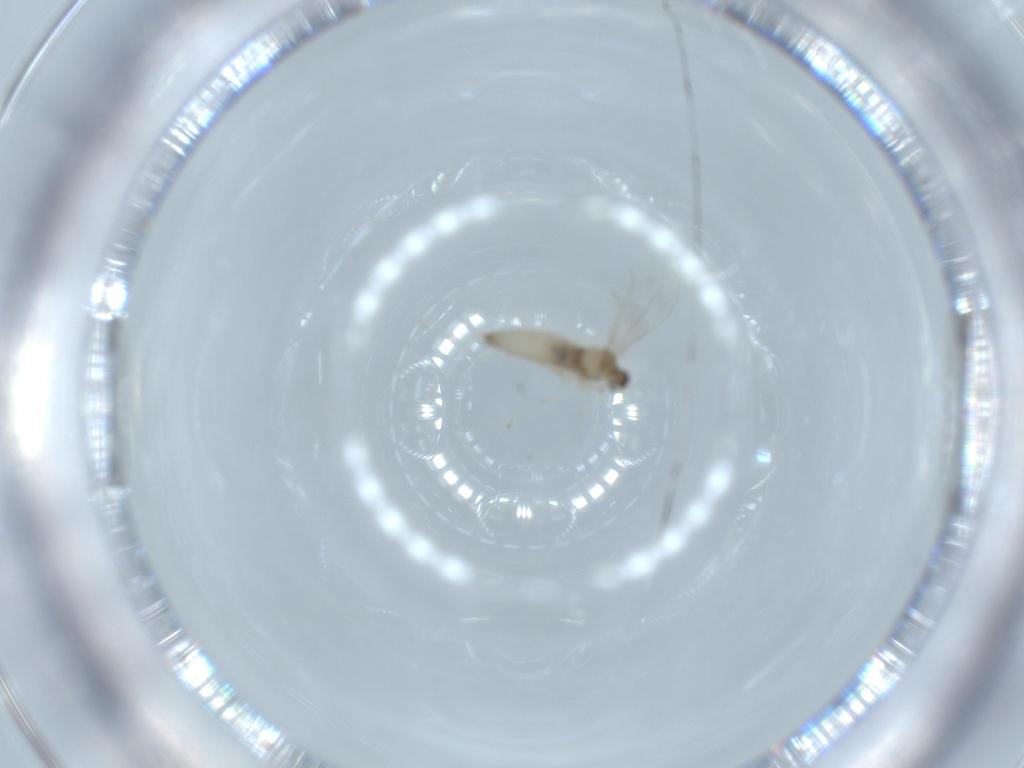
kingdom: Animalia
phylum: Arthropoda
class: Insecta
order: Diptera
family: Cecidomyiidae
